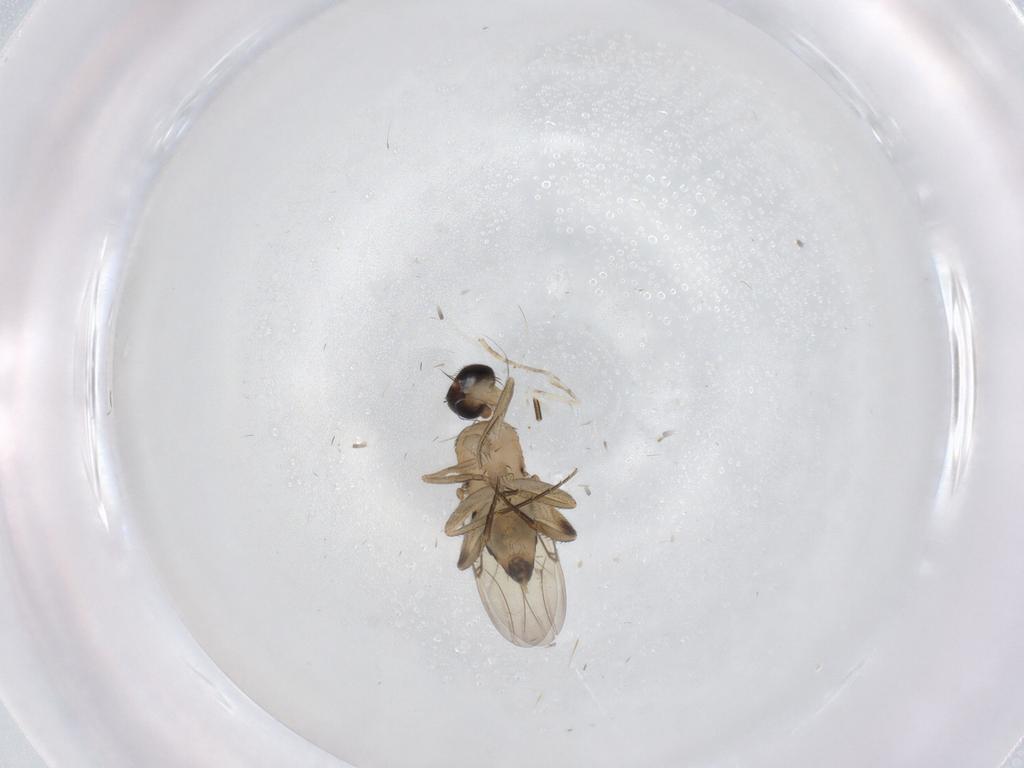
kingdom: Animalia
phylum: Arthropoda
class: Insecta
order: Diptera
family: Phoridae
